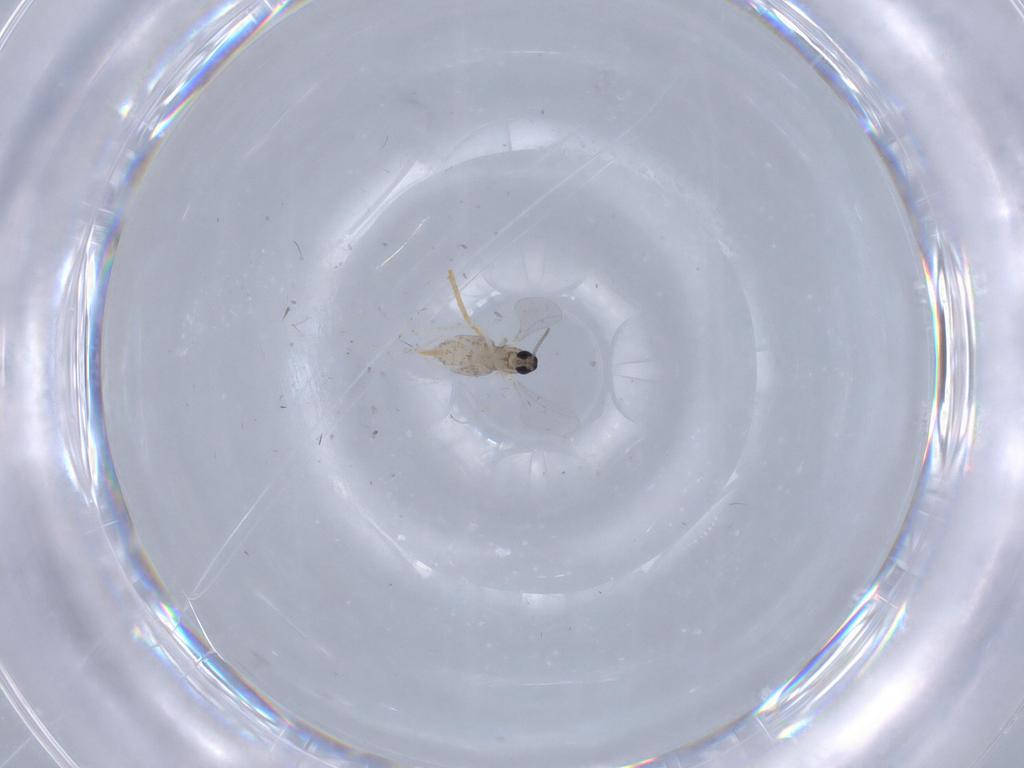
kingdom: Animalia
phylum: Arthropoda
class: Insecta
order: Diptera
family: Cecidomyiidae
